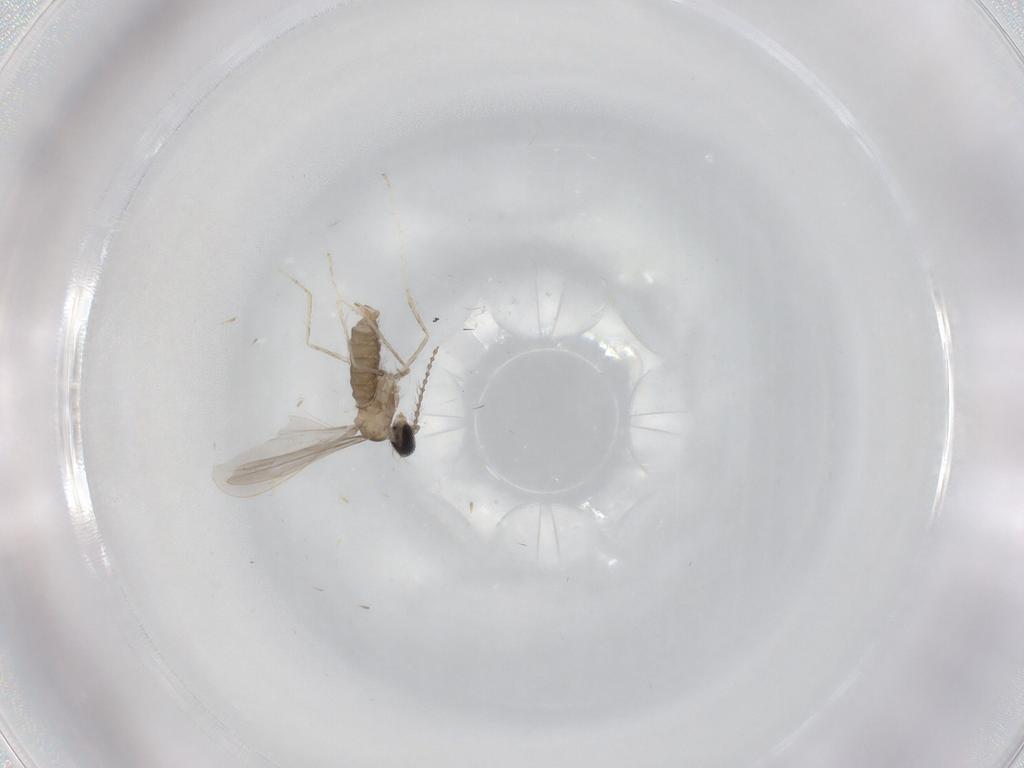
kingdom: Animalia
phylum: Arthropoda
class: Insecta
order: Diptera
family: Cecidomyiidae
